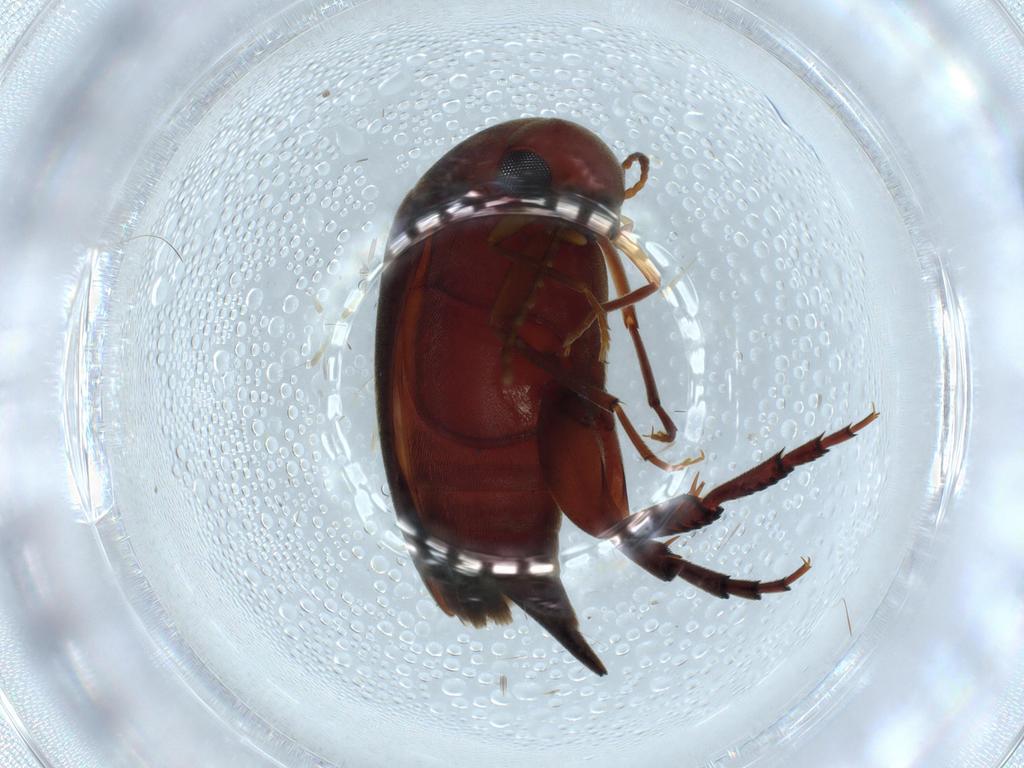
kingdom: Animalia
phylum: Arthropoda
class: Insecta
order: Coleoptera
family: Mordellidae
